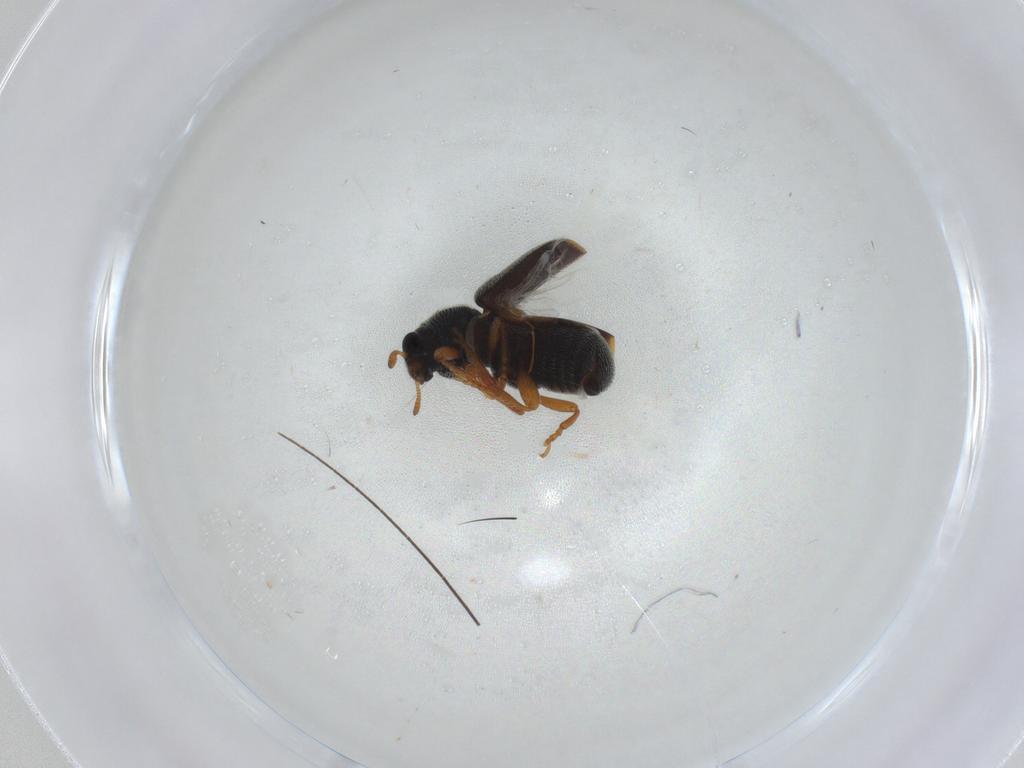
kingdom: Animalia
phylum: Arthropoda
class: Insecta
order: Coleoptera
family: Anthribidae
